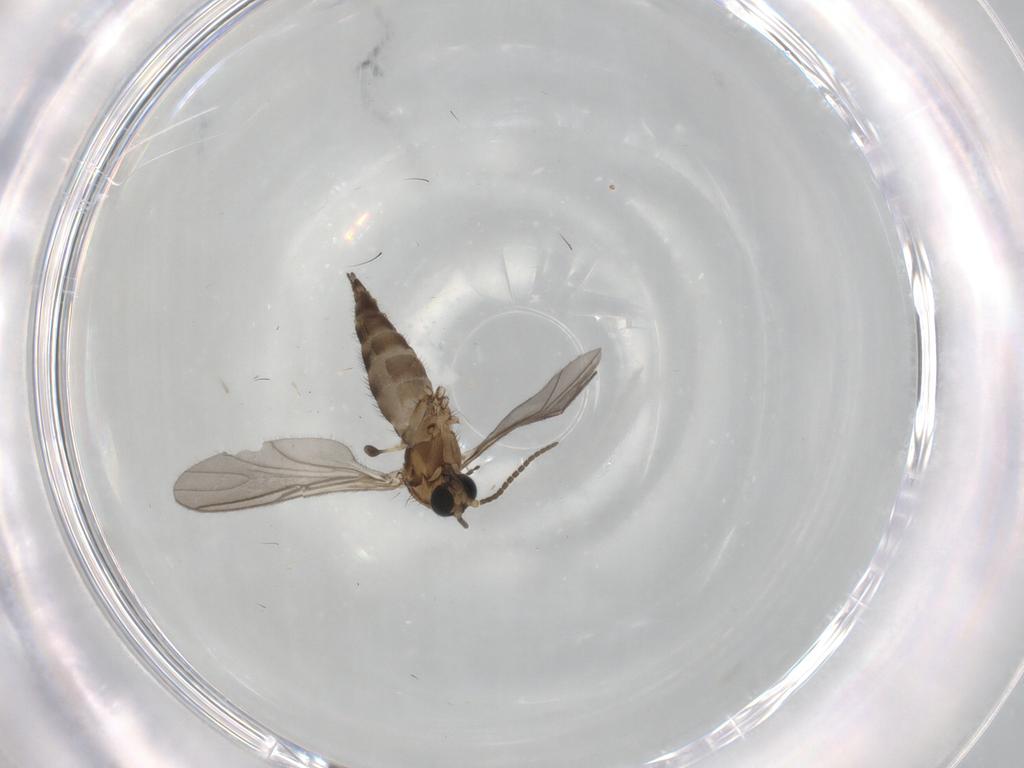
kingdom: Animalia
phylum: Arthropoda
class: Insecta
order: Diptera
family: Sciaridae
